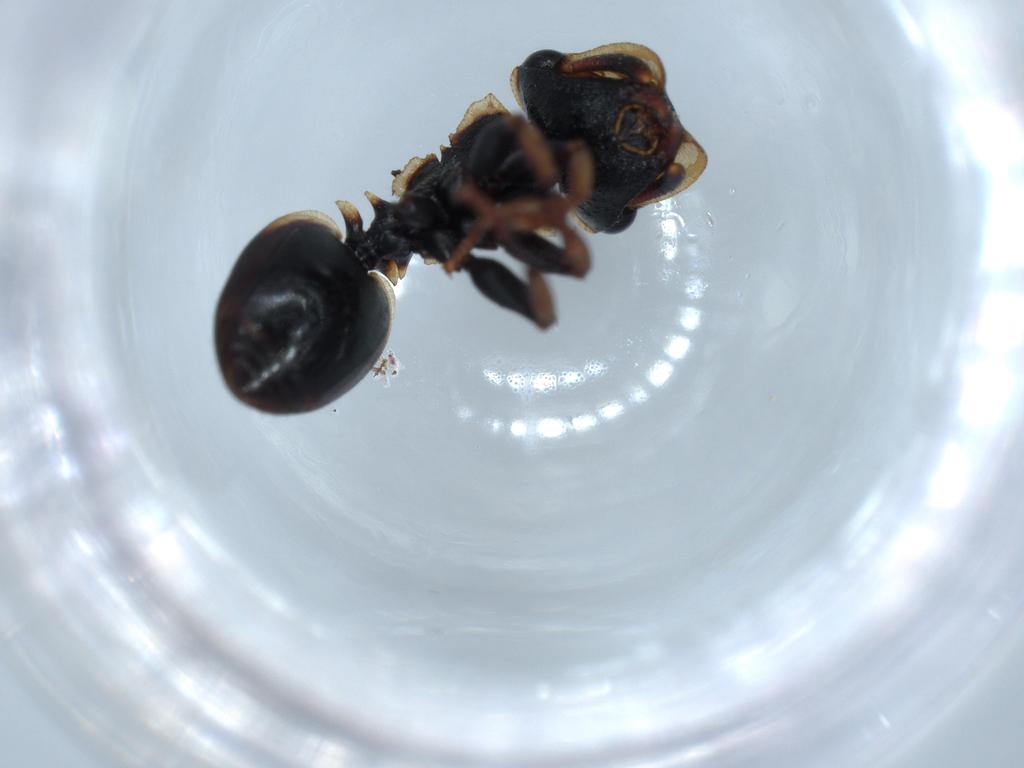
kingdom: Animalia
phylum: Arthropoda
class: Insecta
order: Hymenoptera
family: Formicidae
